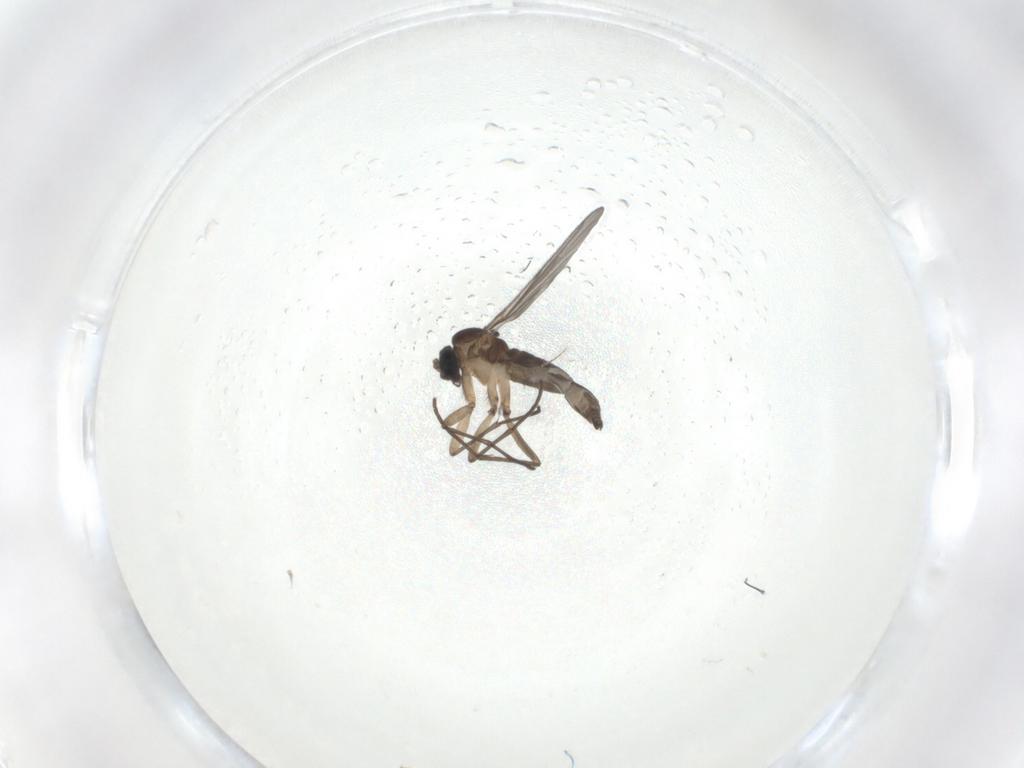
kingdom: Animalia
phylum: Arthropoda
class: Insecta
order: Diptera
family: Sciaridae
